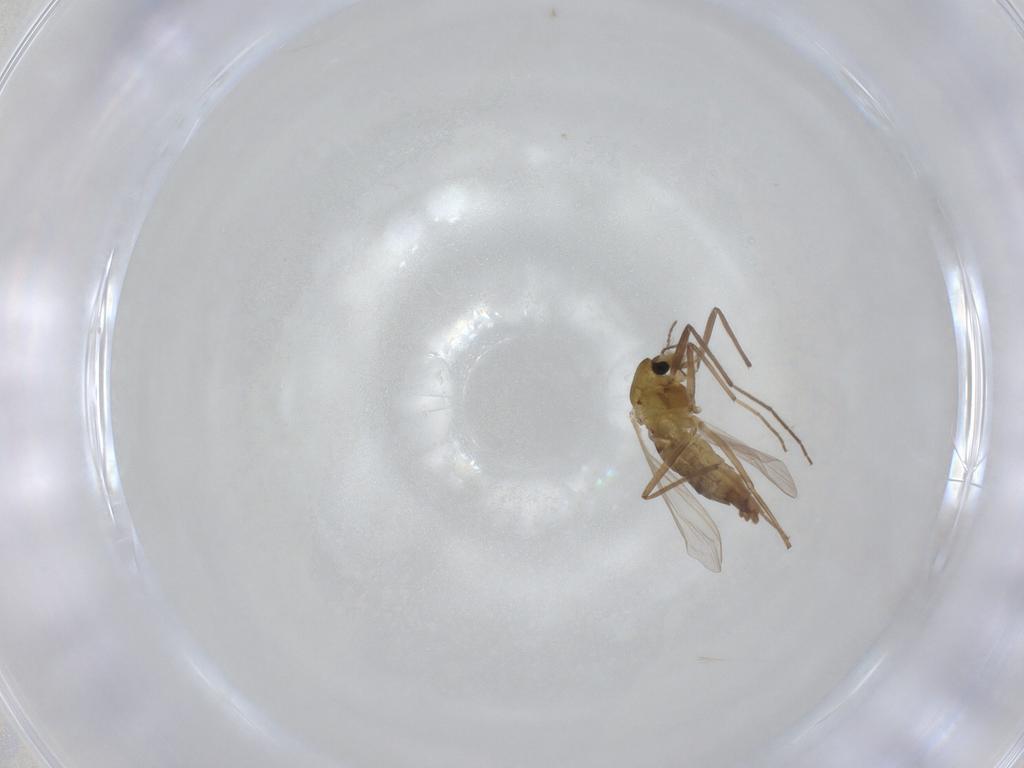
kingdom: Animalia
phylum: Arthropoda
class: Insecta
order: Diptera
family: Chironomidae
